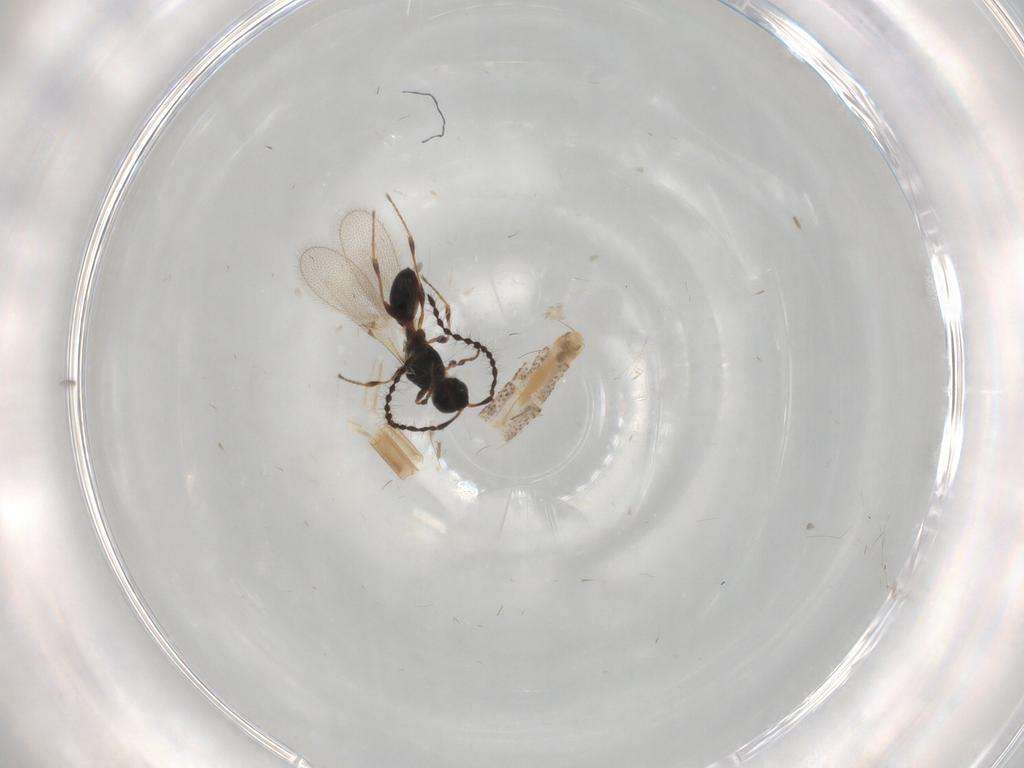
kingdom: Animalia
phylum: Arthropoda
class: Insecta
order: Hymenoptera
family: Diapriidae
